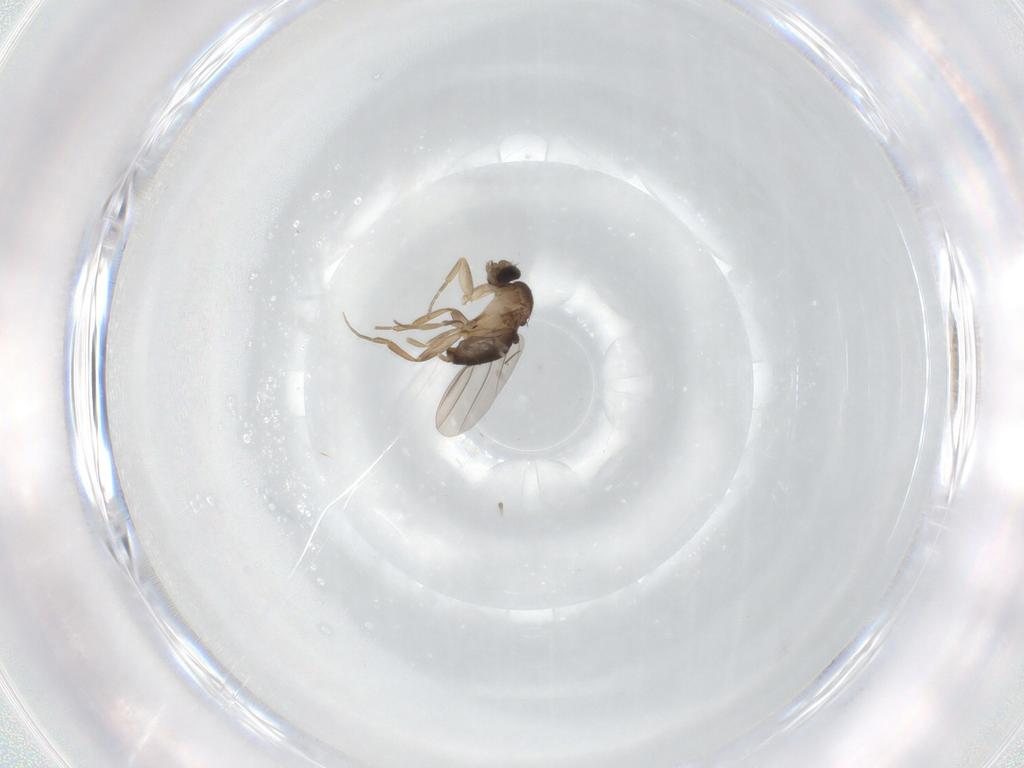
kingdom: Animalia
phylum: Arthropoda
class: Insecta
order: Diptera
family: Phoridae
